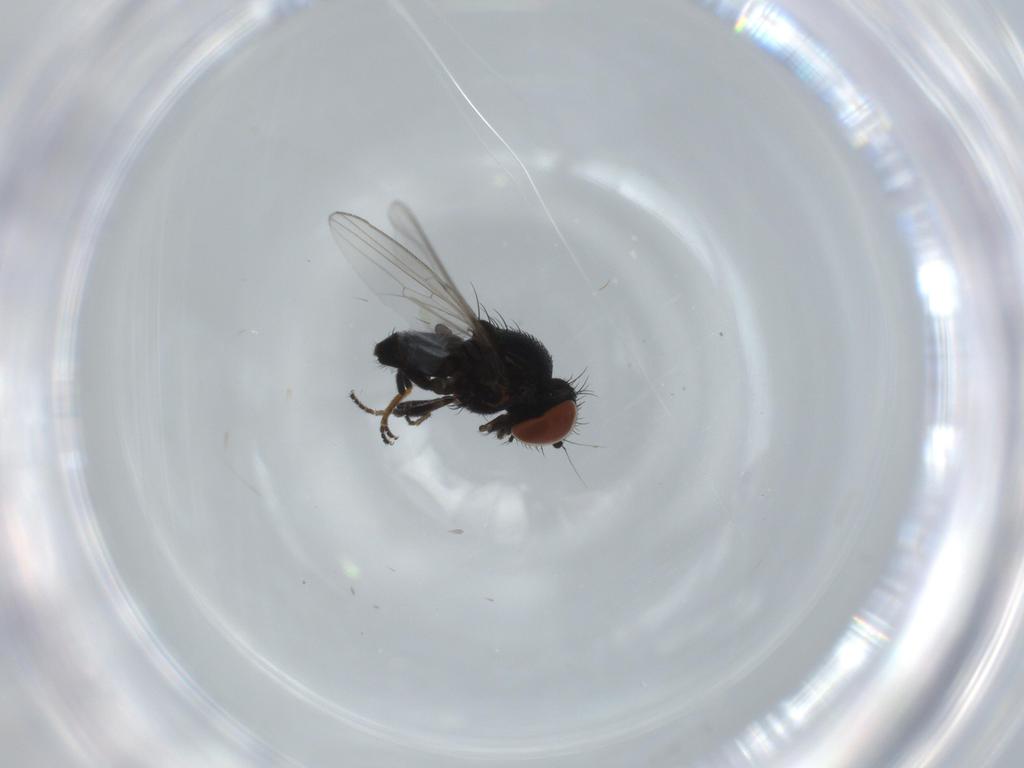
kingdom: Animalia
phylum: Arthropoda
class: Insecta
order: Diptera
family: Milichiidae
